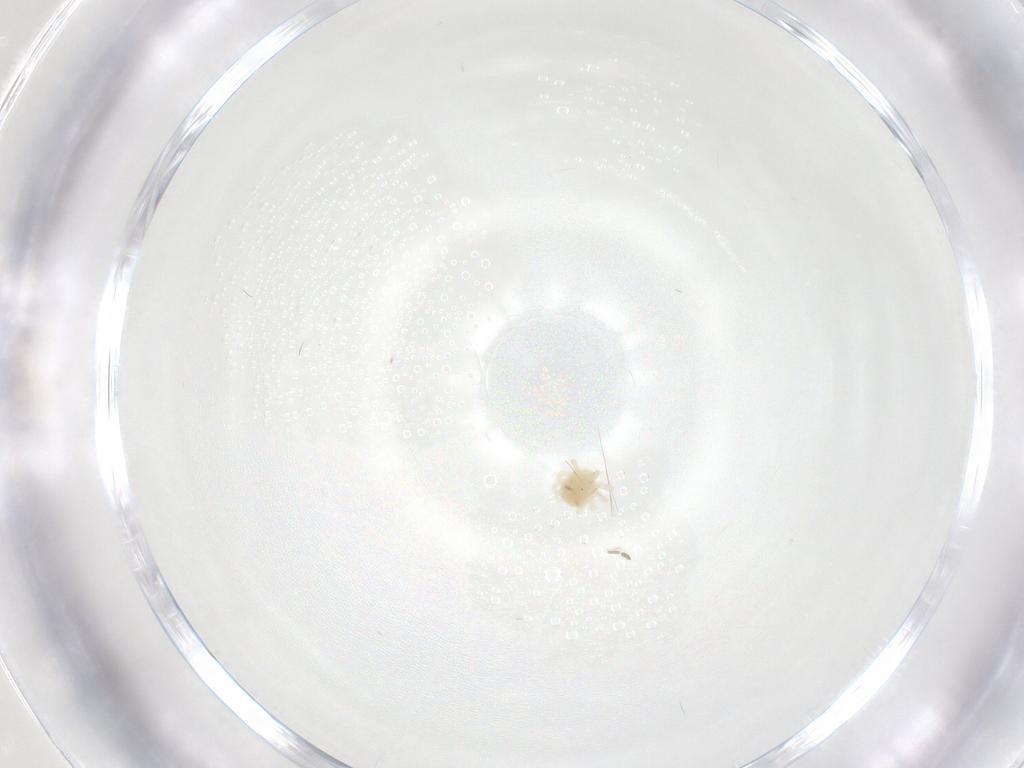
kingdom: Animalia
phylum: Arthropoda
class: Arachnida
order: Trombidiformes
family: Anystidae
